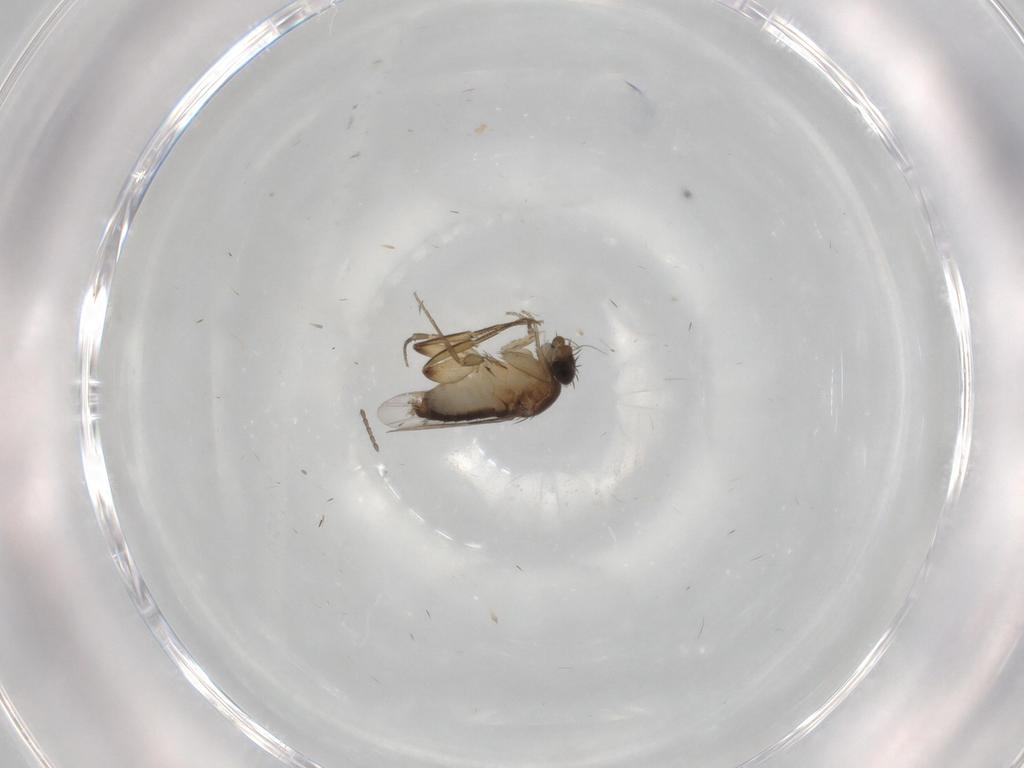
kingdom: Animalia
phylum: Arthropoda
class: Insecta
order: Diptera
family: Phoridae
